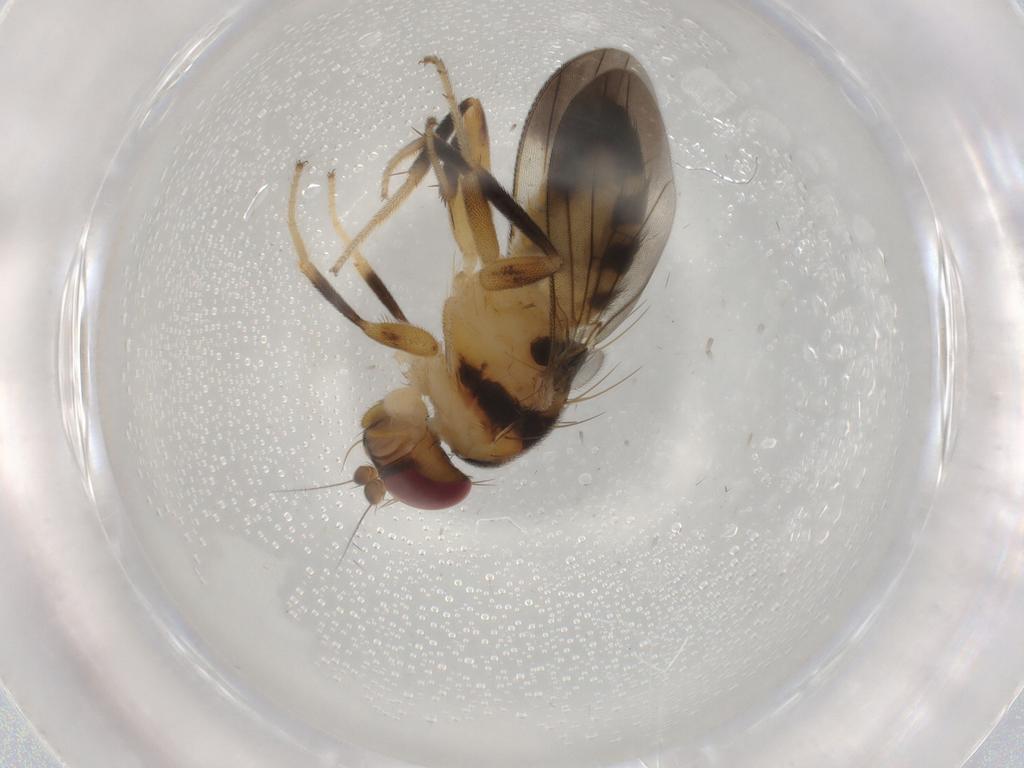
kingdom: Animalia
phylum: Arthropoda
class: Insecta
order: Diptera
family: Clusiidae
